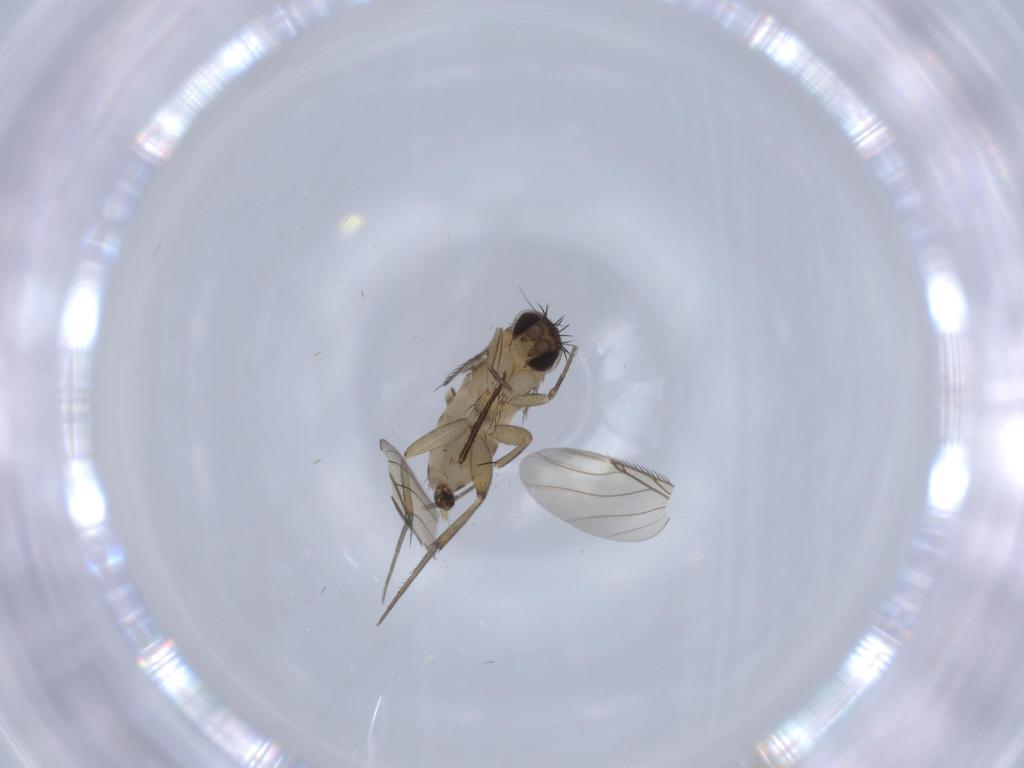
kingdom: Animalia
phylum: Arthropoda
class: Insecta
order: Diptera
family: Phoridae
